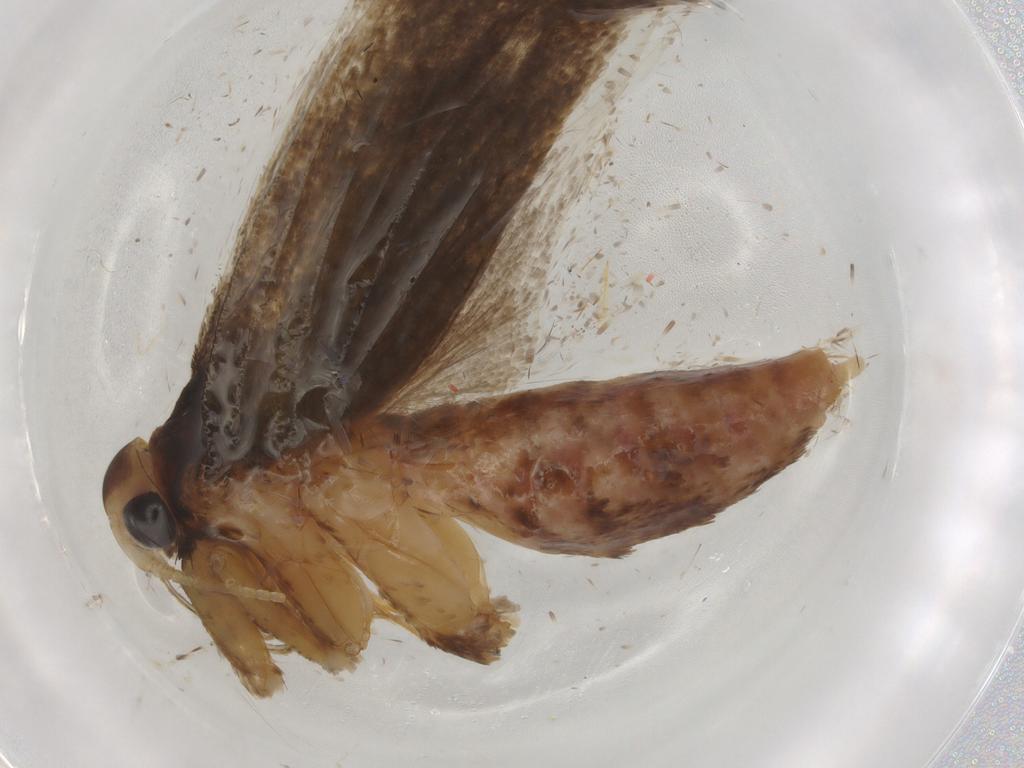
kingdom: Animalia
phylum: Arthropoda
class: Insecta
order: Lepidoptera
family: Lecithoceridae
